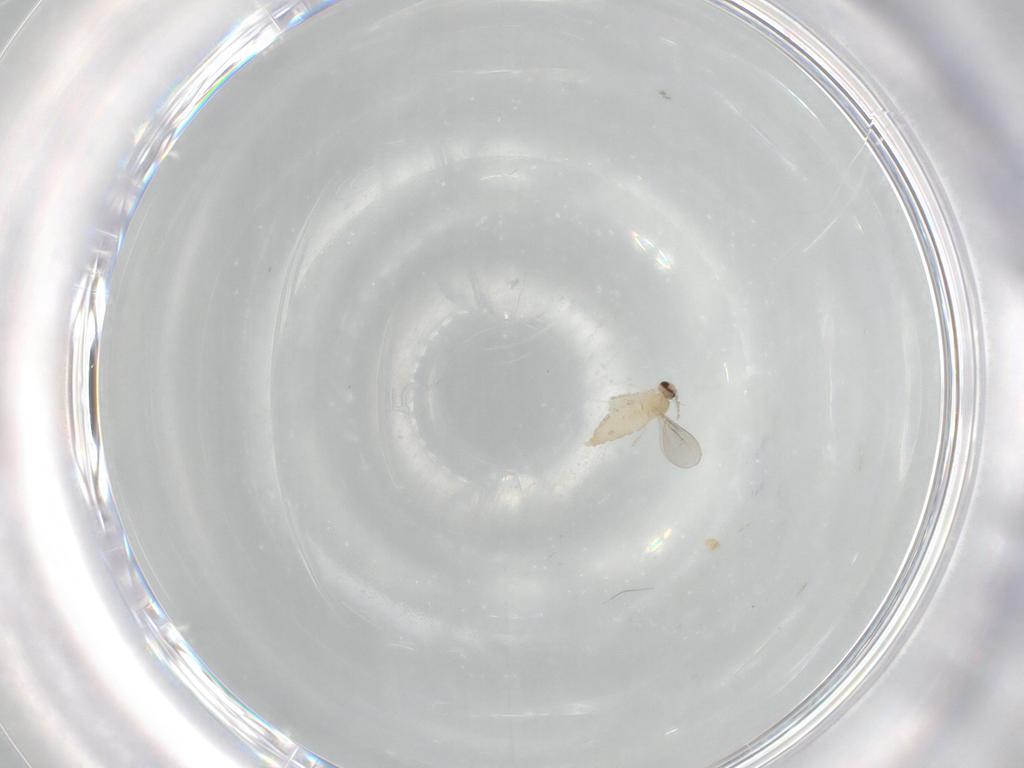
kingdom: Animalia
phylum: Arthropoda
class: Insecta
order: Diptera
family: Cecidomyiidae
